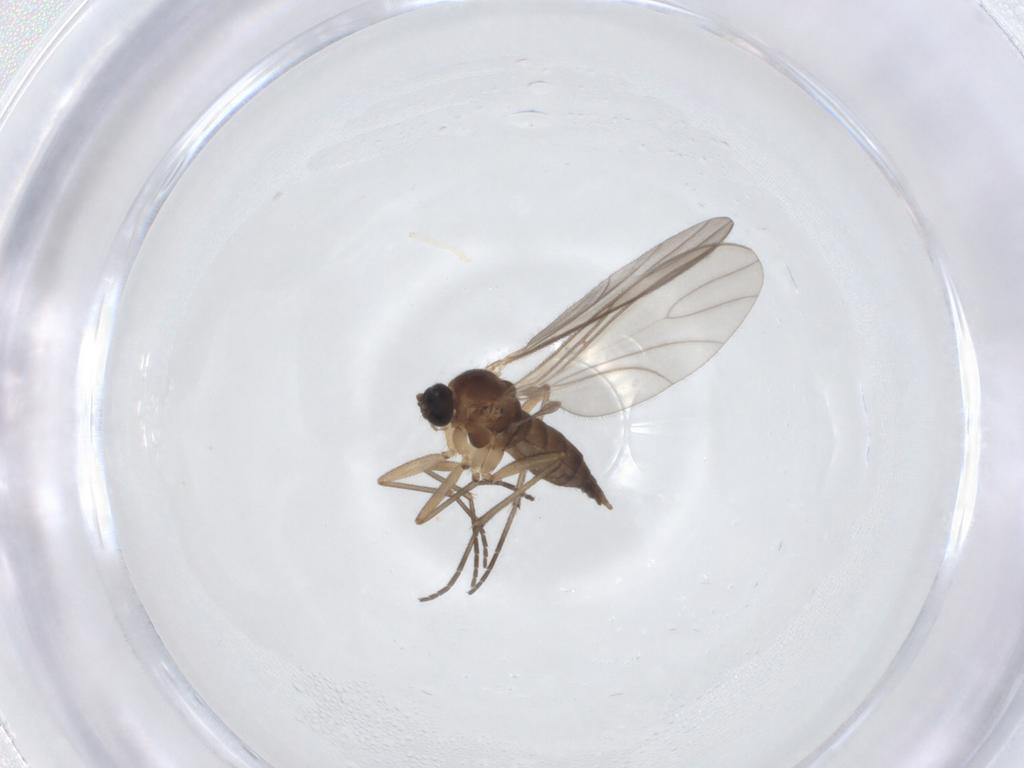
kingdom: Animalia
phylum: Arthropoda
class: Insecta
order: Diptera
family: Sciaridae
